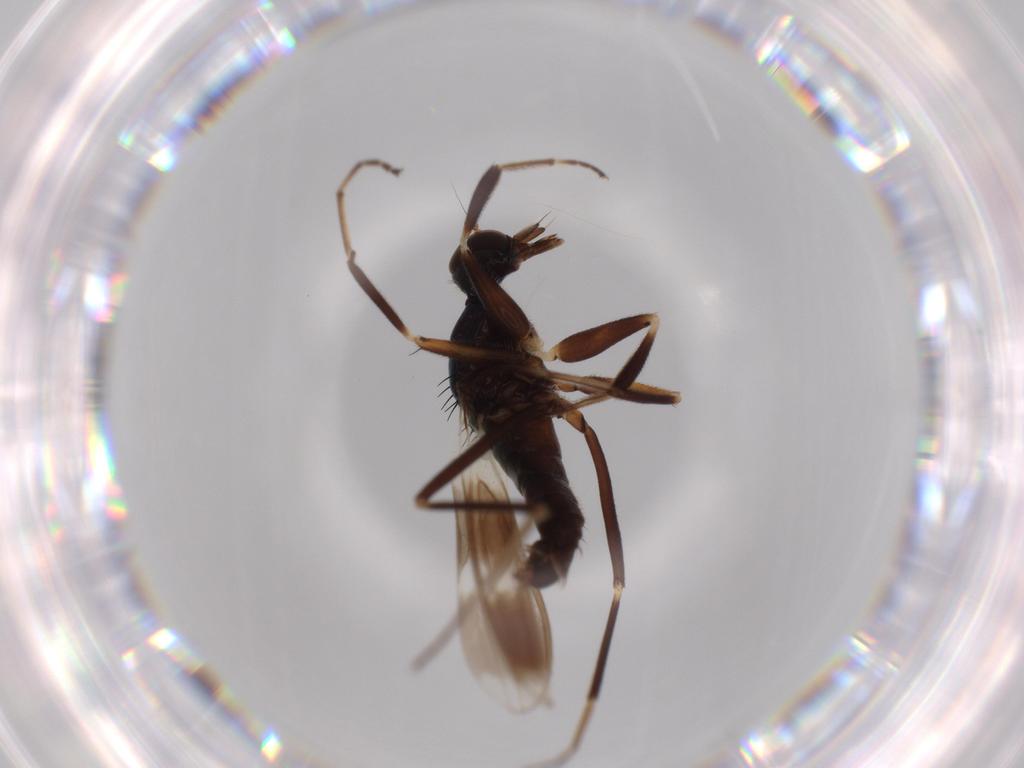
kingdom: Animalia
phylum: Arthropoda
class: Insecta
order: Diptera
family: Hybotidae
